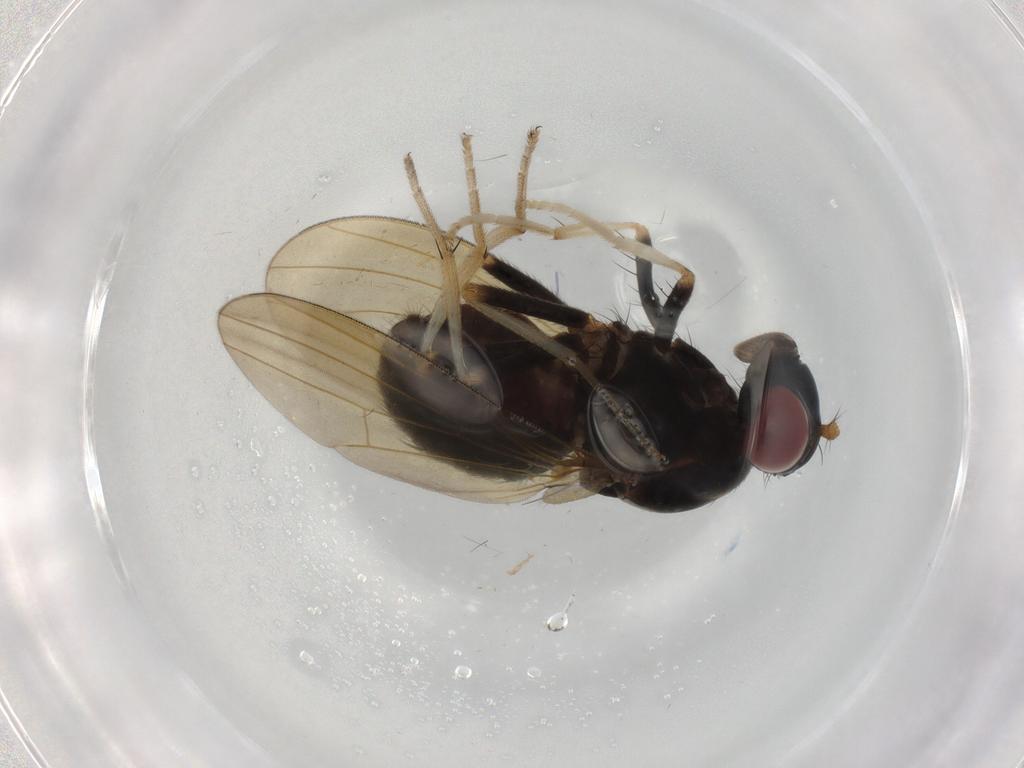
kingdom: Animalia
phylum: Arthropoda
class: Insecta
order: Diptera
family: Lauxaniidae
